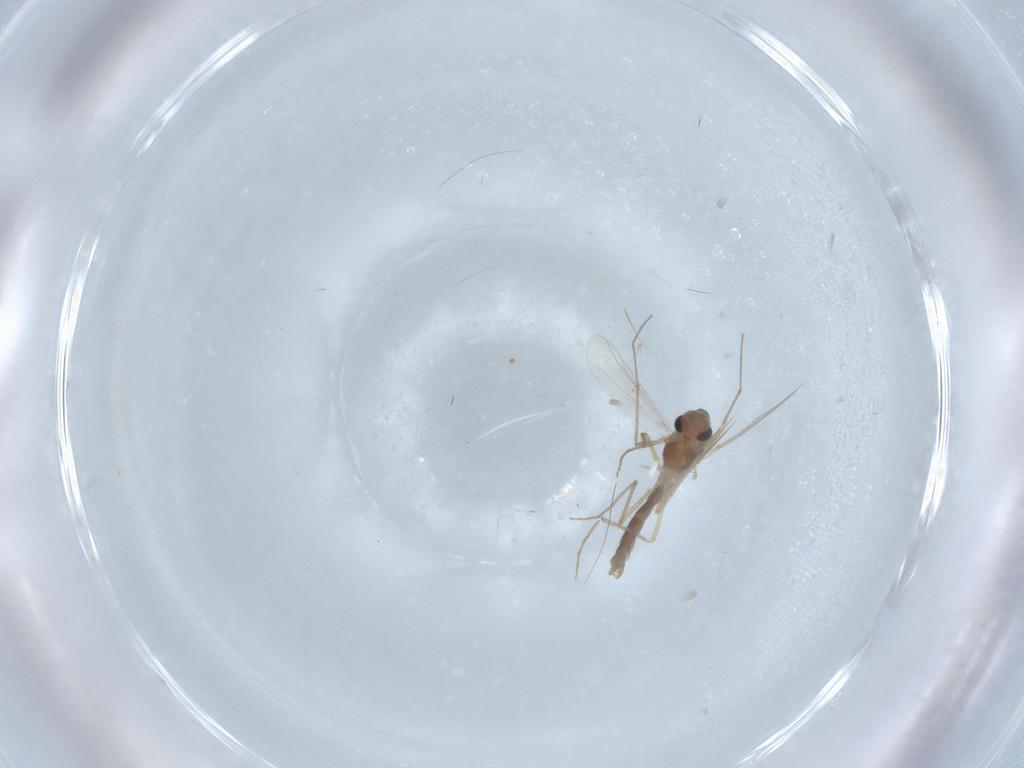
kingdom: Animalia
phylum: Arthropoda
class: Insecta
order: Diptera
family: Chironomidae
